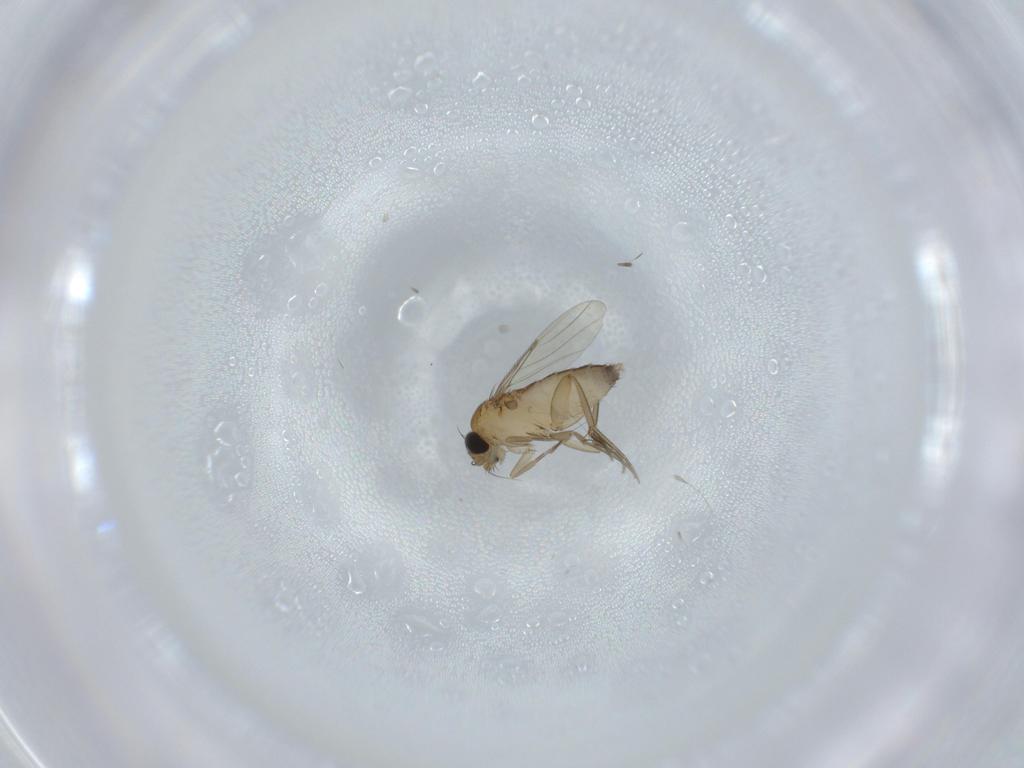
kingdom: Animalia
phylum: Arthropoda
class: Insecta
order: Diptera
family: Phoridae
